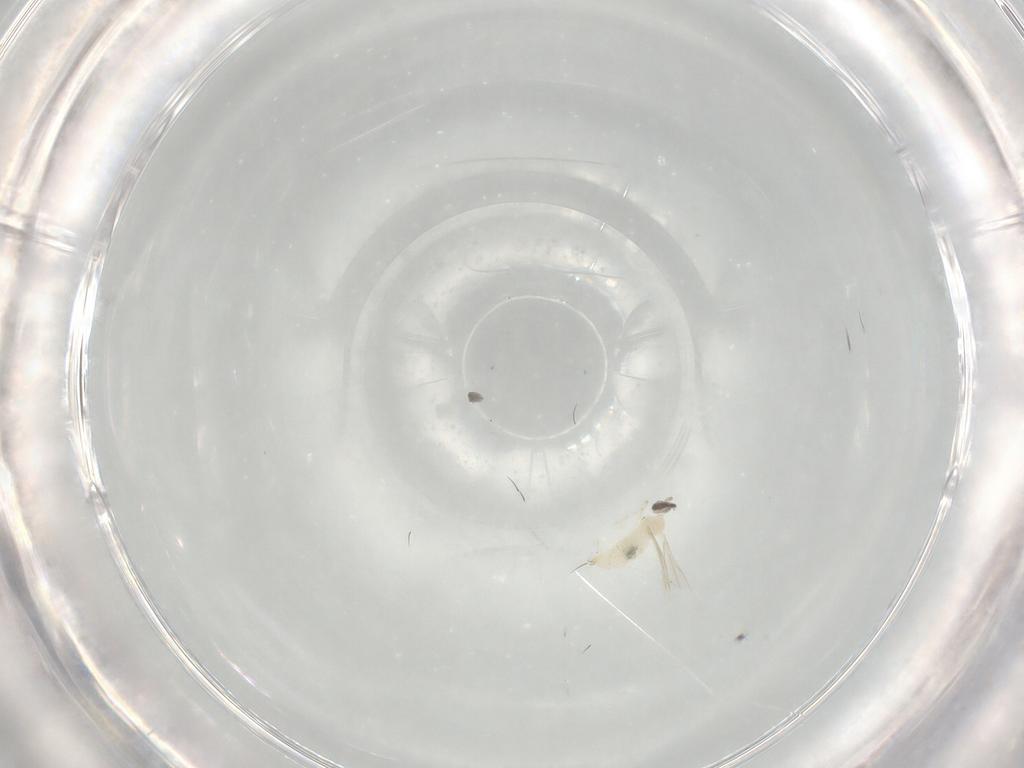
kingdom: Animalia
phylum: Arthropoda
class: Insecta
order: Diptera
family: Cecidomyiidae
